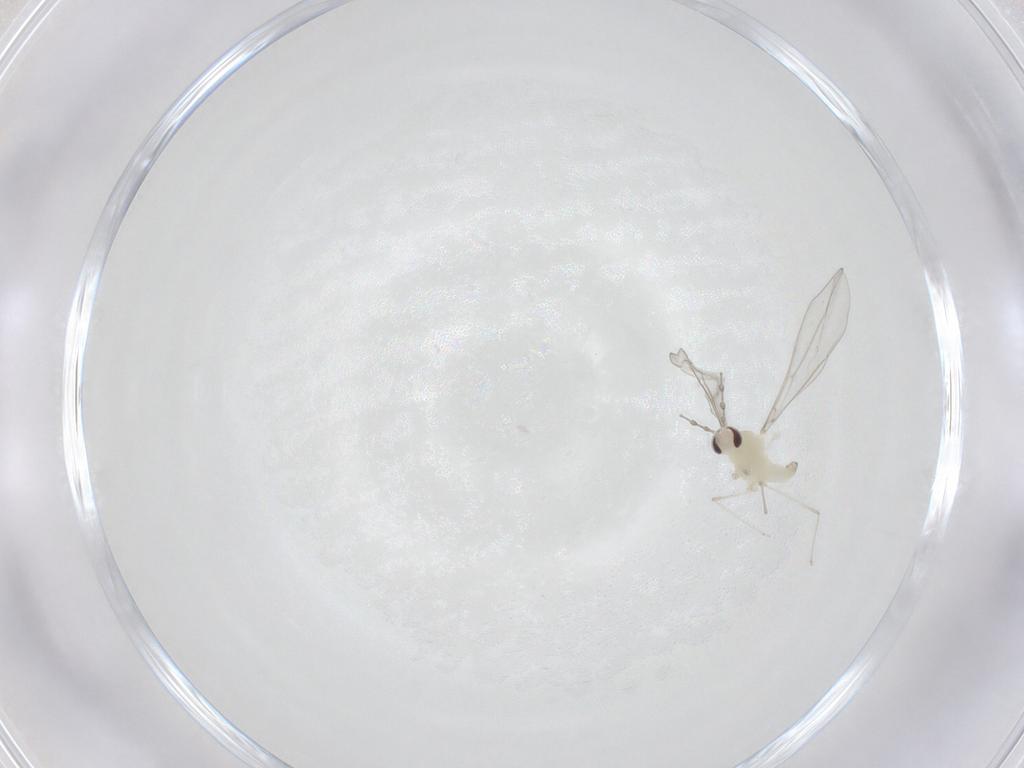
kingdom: Animalia
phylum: Arthropoda
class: Insecta
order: Diptera
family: Cecidomyiidae
